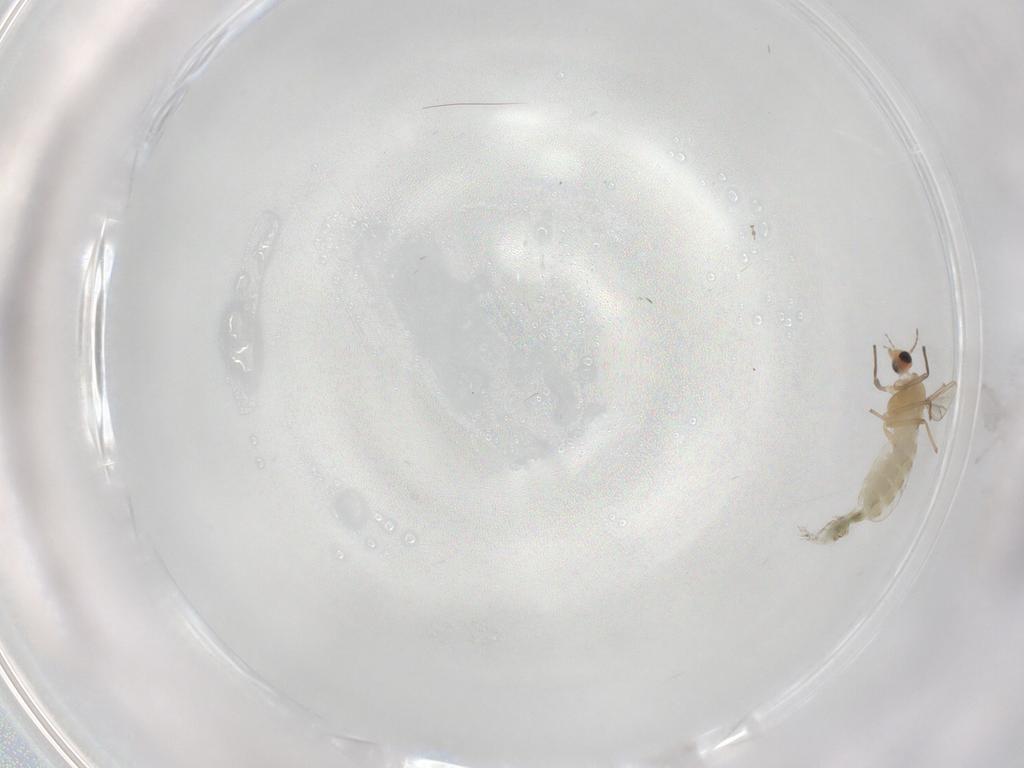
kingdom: Animalia
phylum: Arthropoda
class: Insecta
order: Diptera
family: Chironomidae
